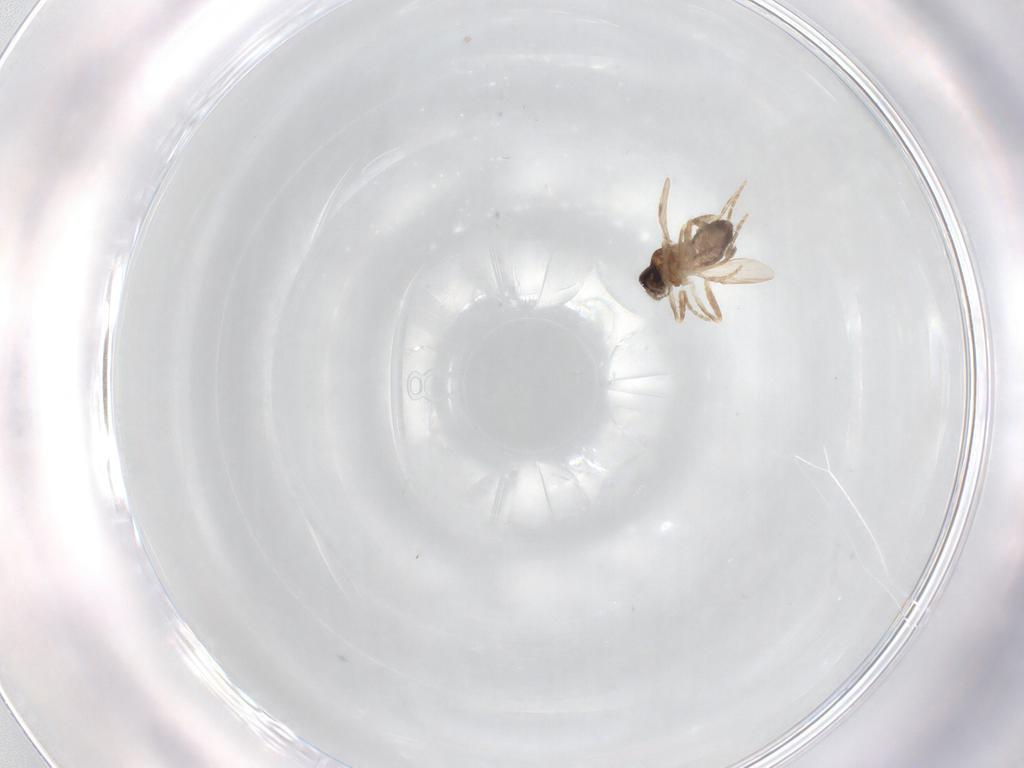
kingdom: Animalia
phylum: Arthropoda
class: Insecta
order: Diptera
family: Ceratopogonidae
